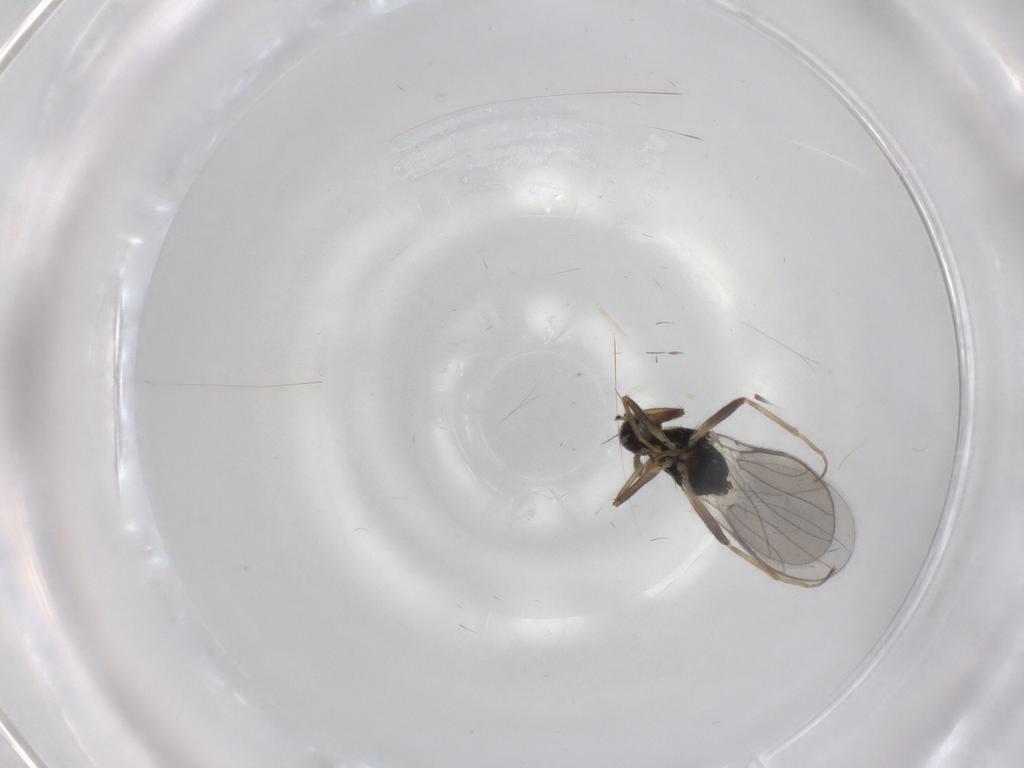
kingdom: Animalia
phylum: Arthropoda
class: Insecta
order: Diptera
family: Hybotidae
